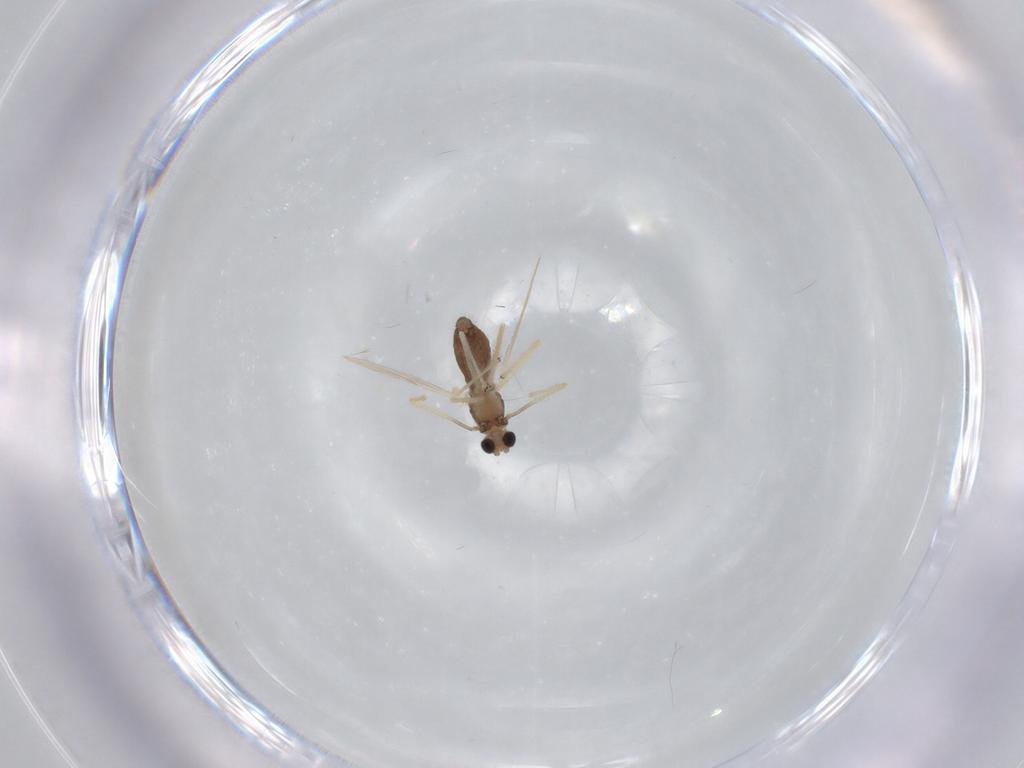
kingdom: Animalia
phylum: Arthropoda
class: Insecta
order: Diptera
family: Chironomidae
